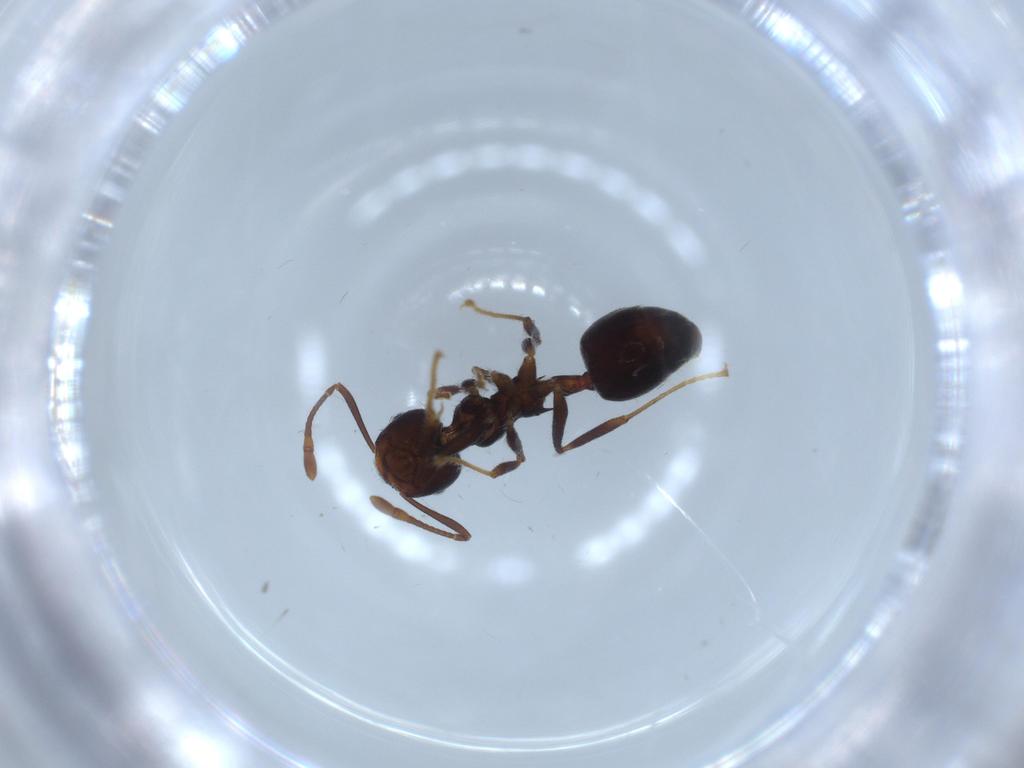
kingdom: Animalia
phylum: Arthropoda
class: Insecta
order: Hymenoptera
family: Formicidae
